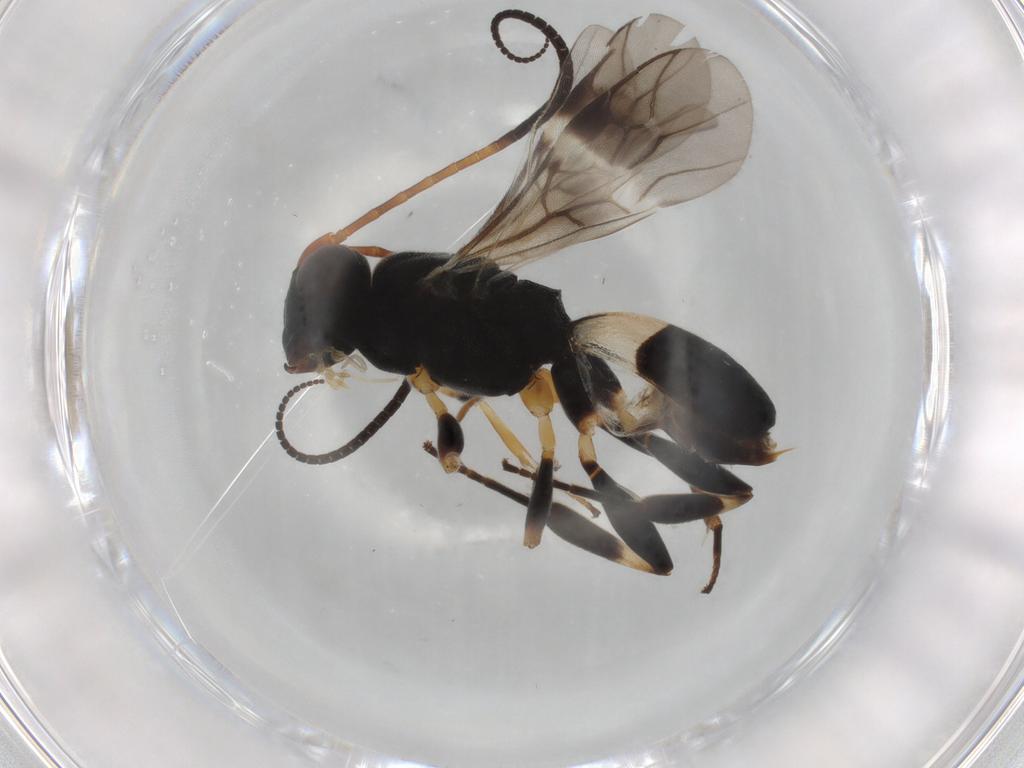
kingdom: Animalia
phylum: Arthropoda
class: Insecta
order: Hymenoptera
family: Braconidae
